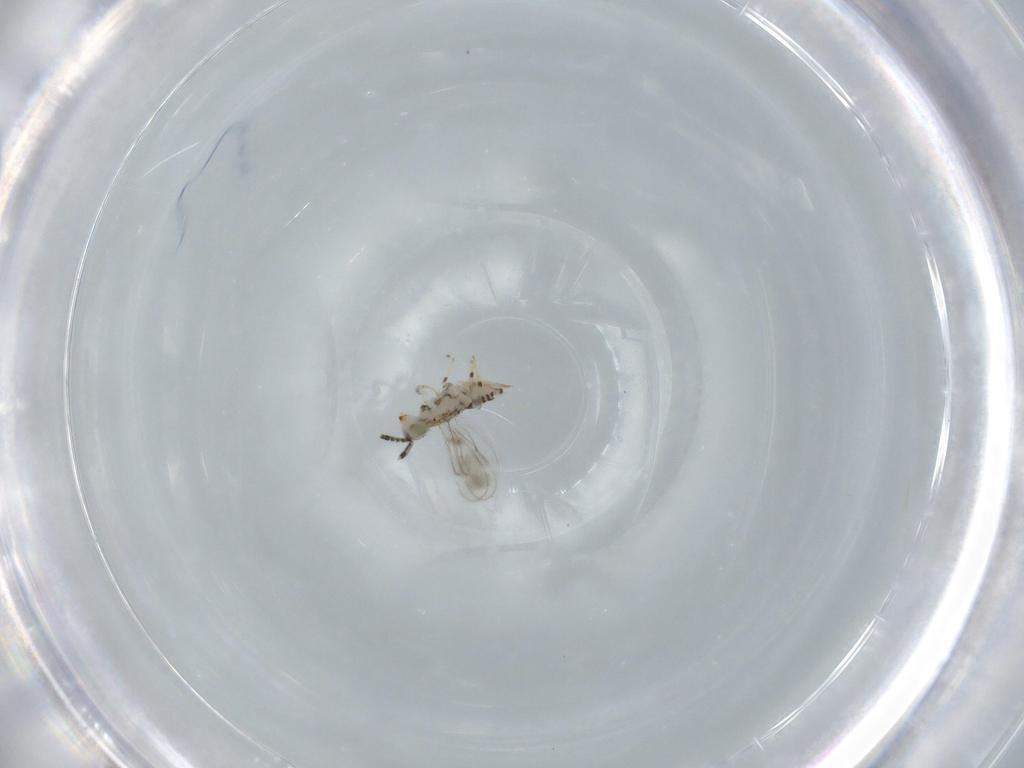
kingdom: Animalia
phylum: Arthropoda
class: Insecta
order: Hymenoptera
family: Aphelinidae
